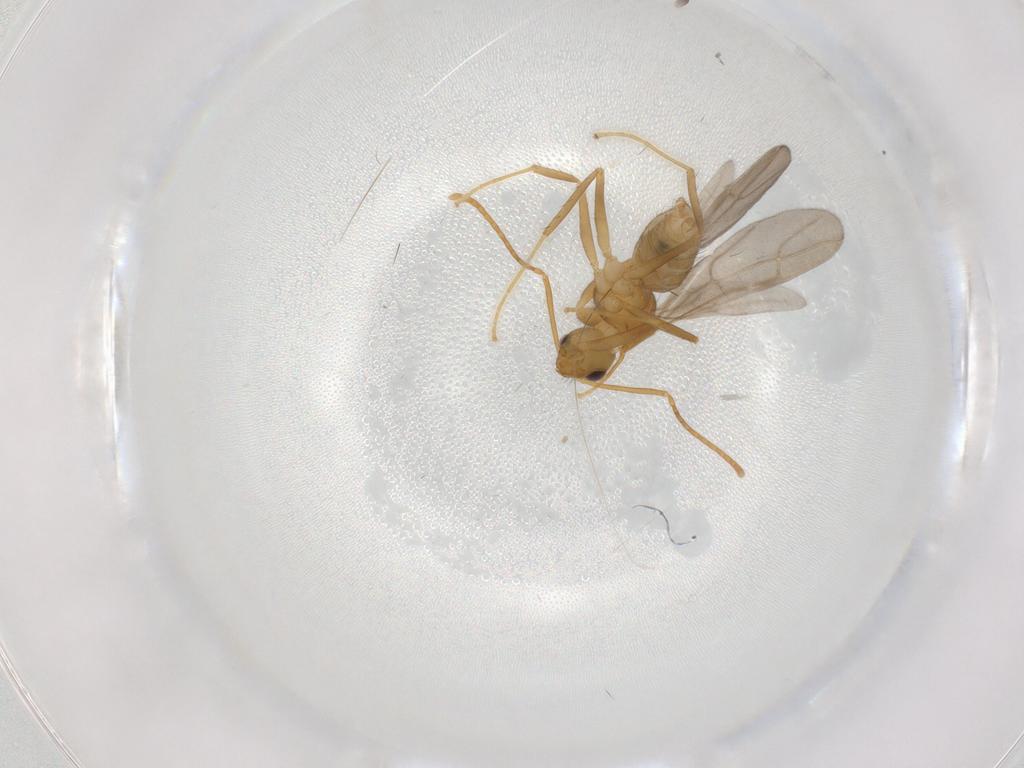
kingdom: Animalia
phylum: Arthropoda
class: Insecta
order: Hymenoptera
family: Formicidae
